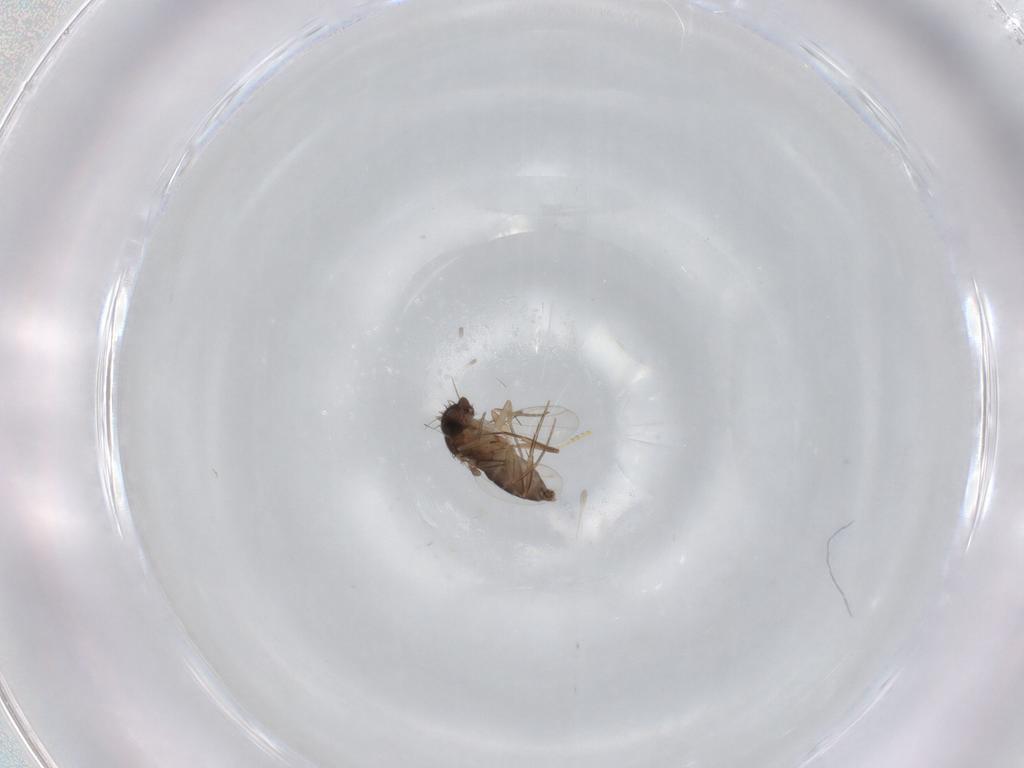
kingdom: Animalia
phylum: Arthropoda
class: Insecta
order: Diptera
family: Phoridae
